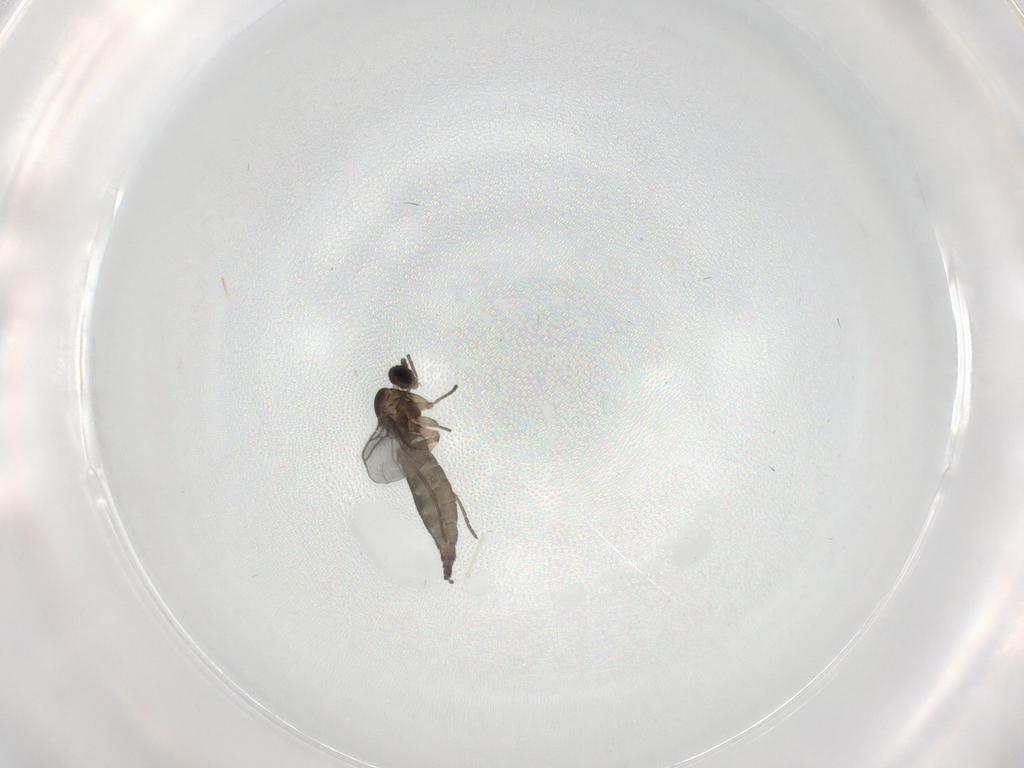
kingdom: Animalia
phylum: Arthropoda
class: Insecta
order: Diptera
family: Sciaridae
